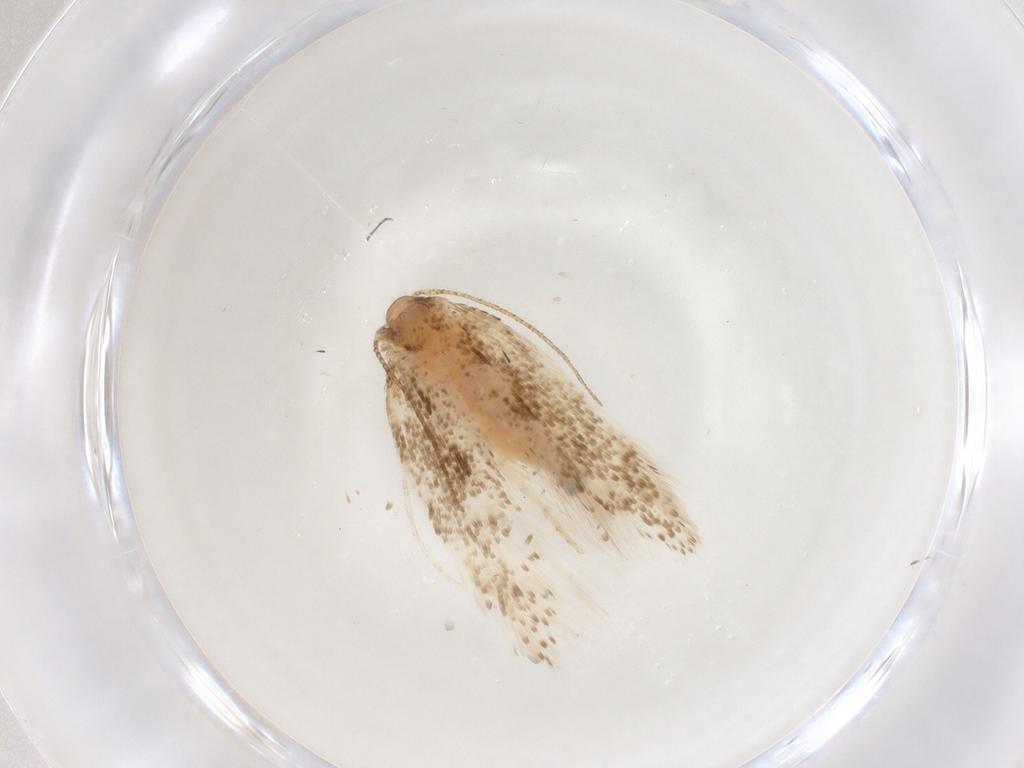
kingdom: Animalia
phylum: Arthropoda
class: Insecta
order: Lepidoptera
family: Gelechiidae
